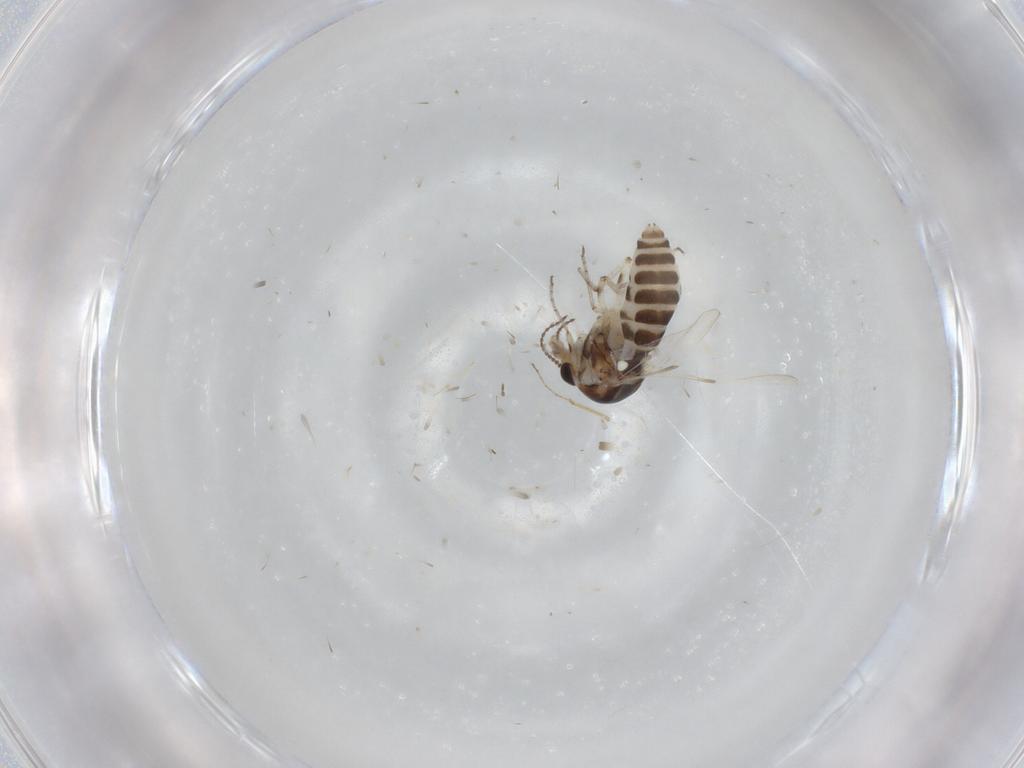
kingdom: Animalia
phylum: Arthropoda
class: Insecta
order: Diptera
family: Ceratopogonidae
